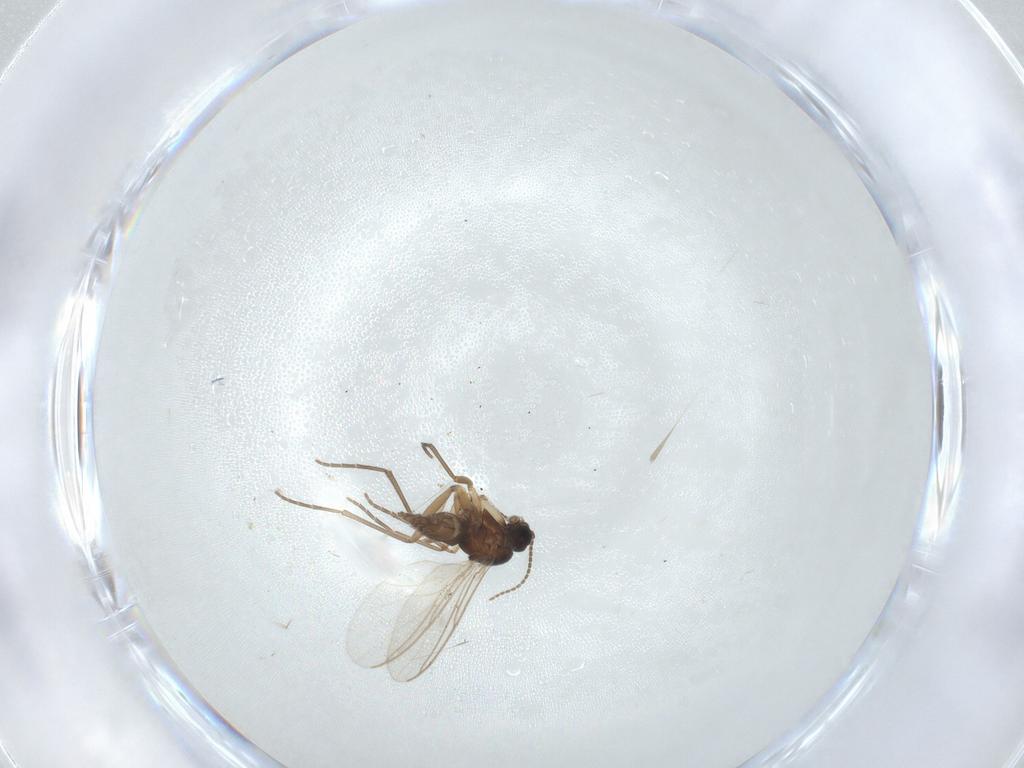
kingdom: Animalia
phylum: Arthropoda
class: Insecta
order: Diptera
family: Sciaridae
